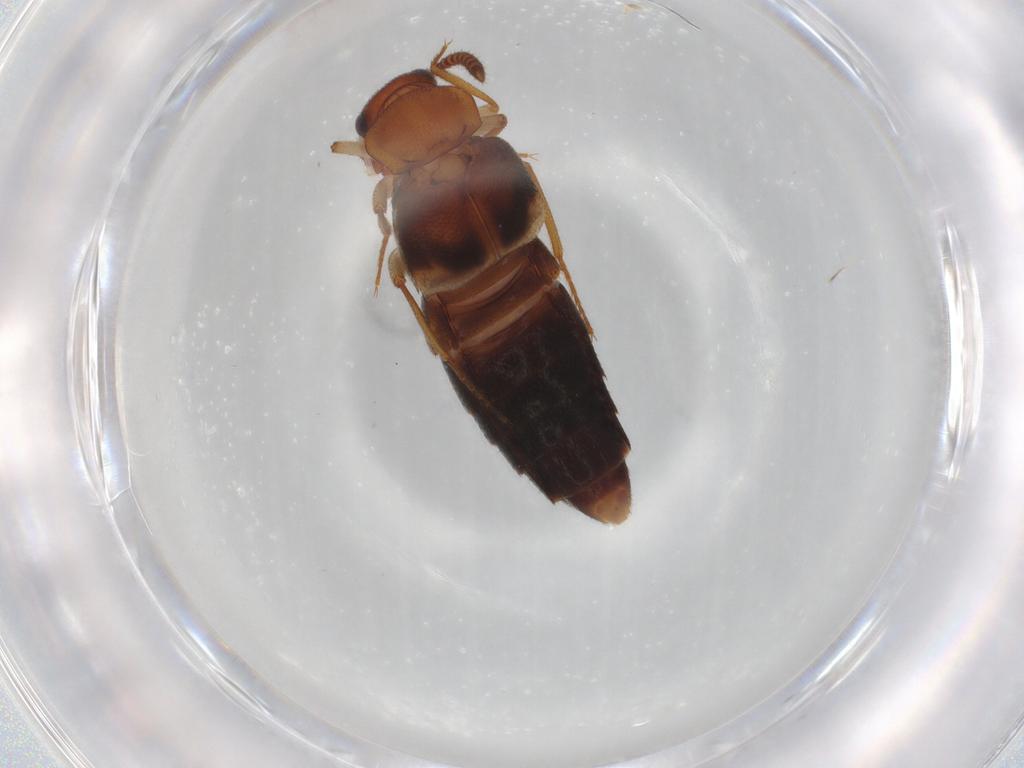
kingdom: Animalia
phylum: Arthropoda
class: Insecta
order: Coleoptera
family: Staphylinidae
